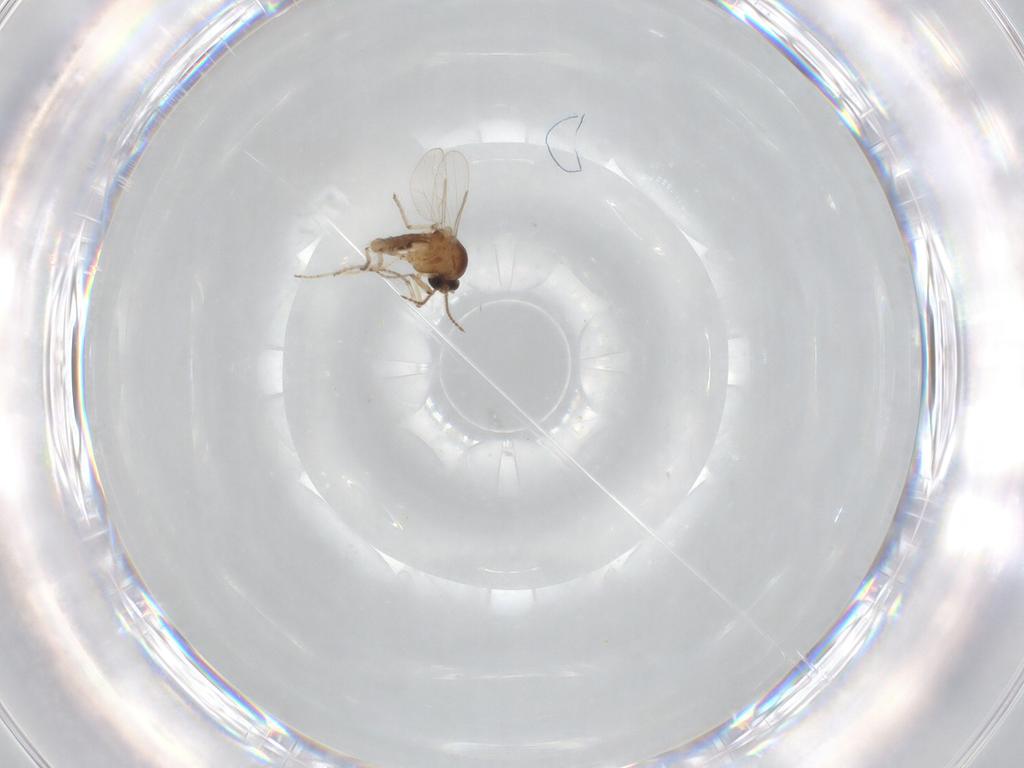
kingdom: Animalia
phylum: Arthropoda
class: Insecta
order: Diptera
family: Ceratopogonidae
